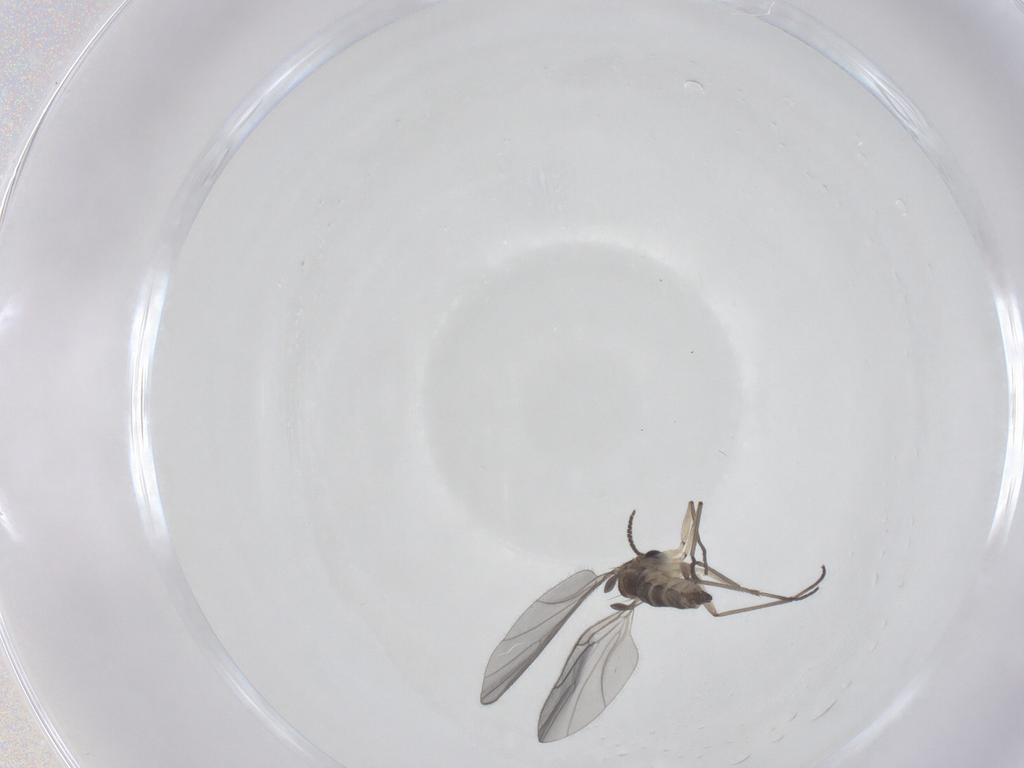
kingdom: Animalia
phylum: Arthropoda
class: Insecta
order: Diptera
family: Sciaridae
